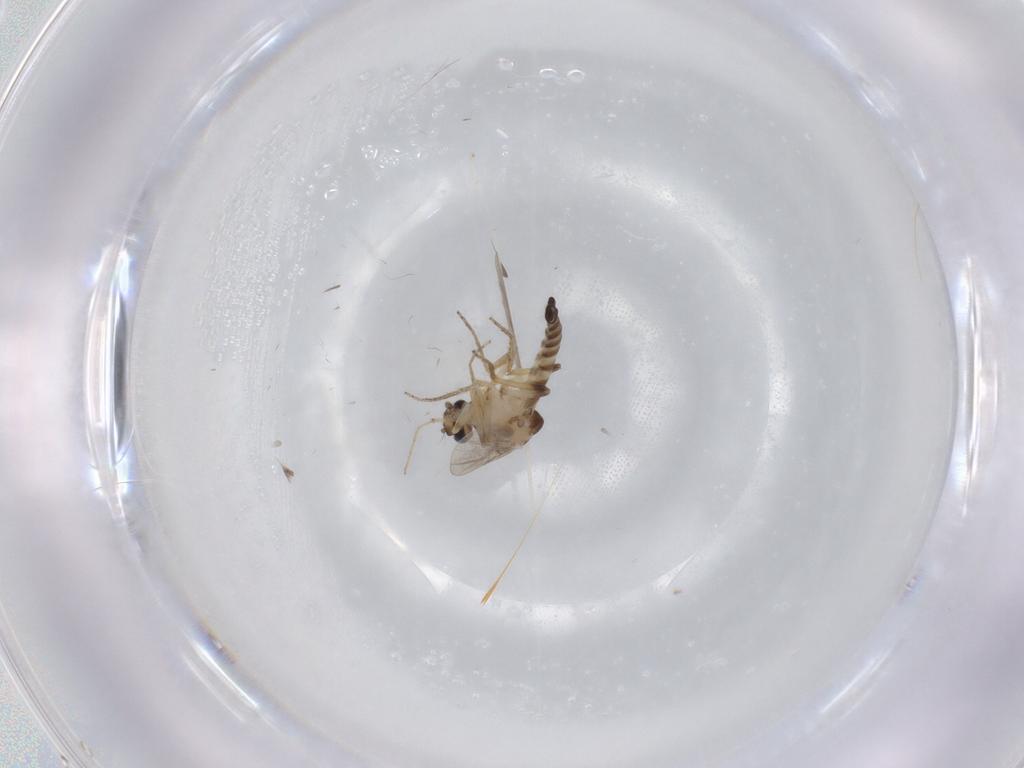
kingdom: Animalia
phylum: Arthropoda
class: Insecta
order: Diptera
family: Ceratopogonidae
